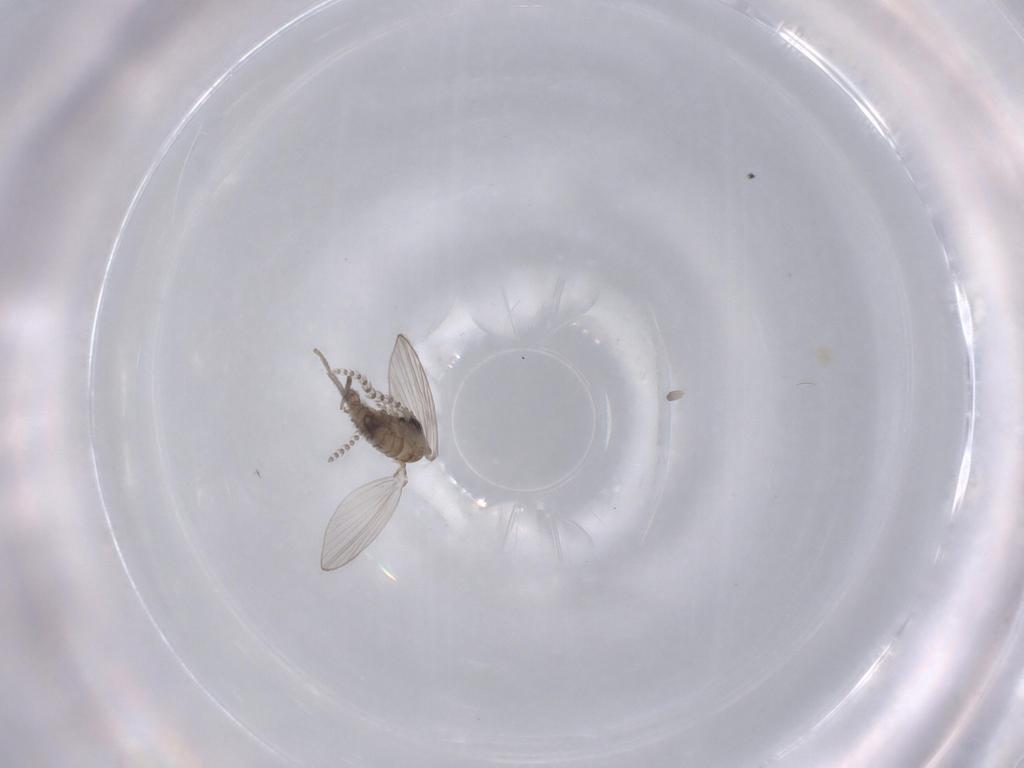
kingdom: Animalia
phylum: Arthropoda
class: Insecta
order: Diptera
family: Psychodidae
